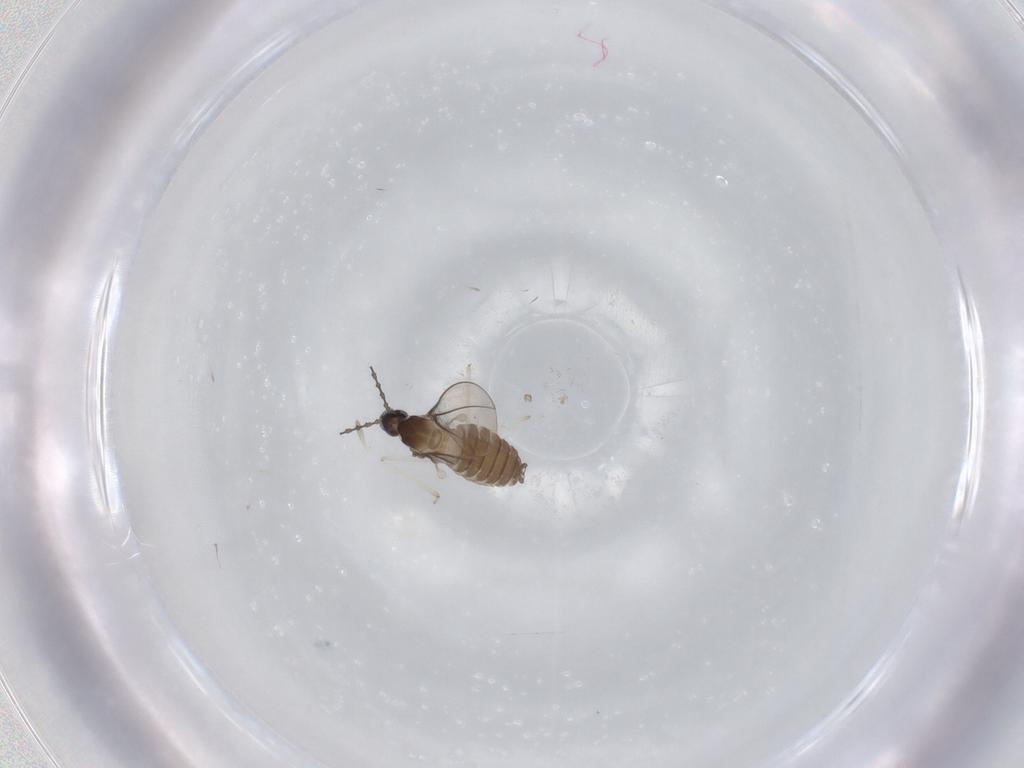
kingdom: Animalia
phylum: Arthropoda
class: Insecta
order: Diptera
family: Cecidomyiidae
